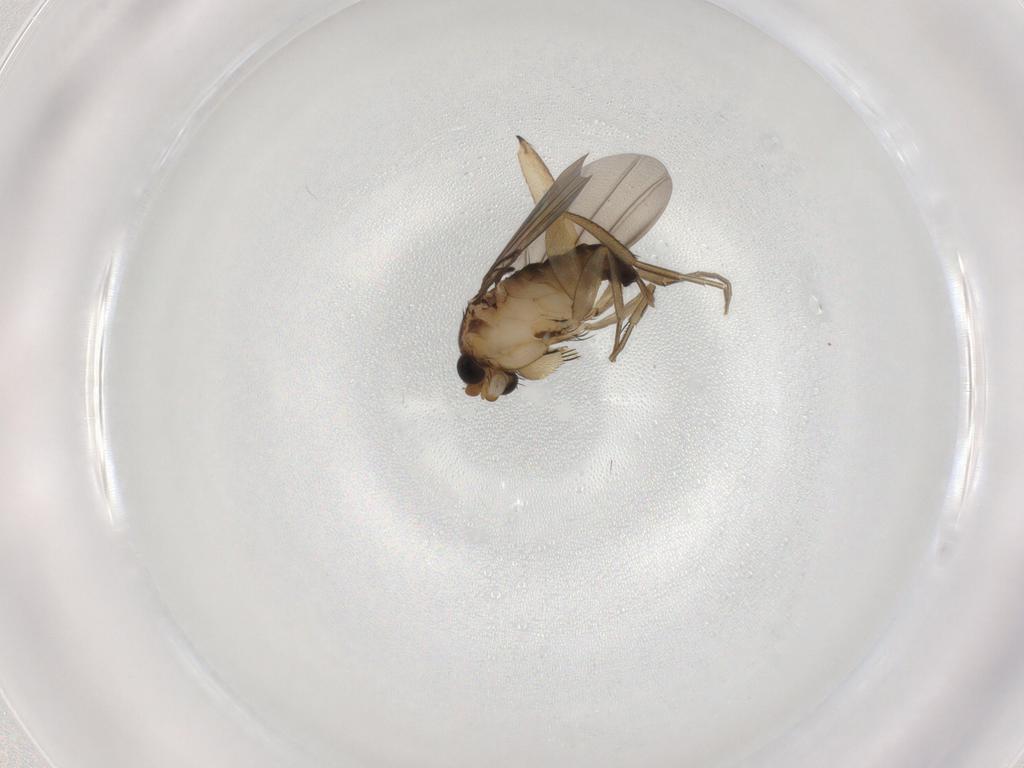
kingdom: Animalia
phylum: Arthropoda
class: Insecta
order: Diptera
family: Mycetophilidae
